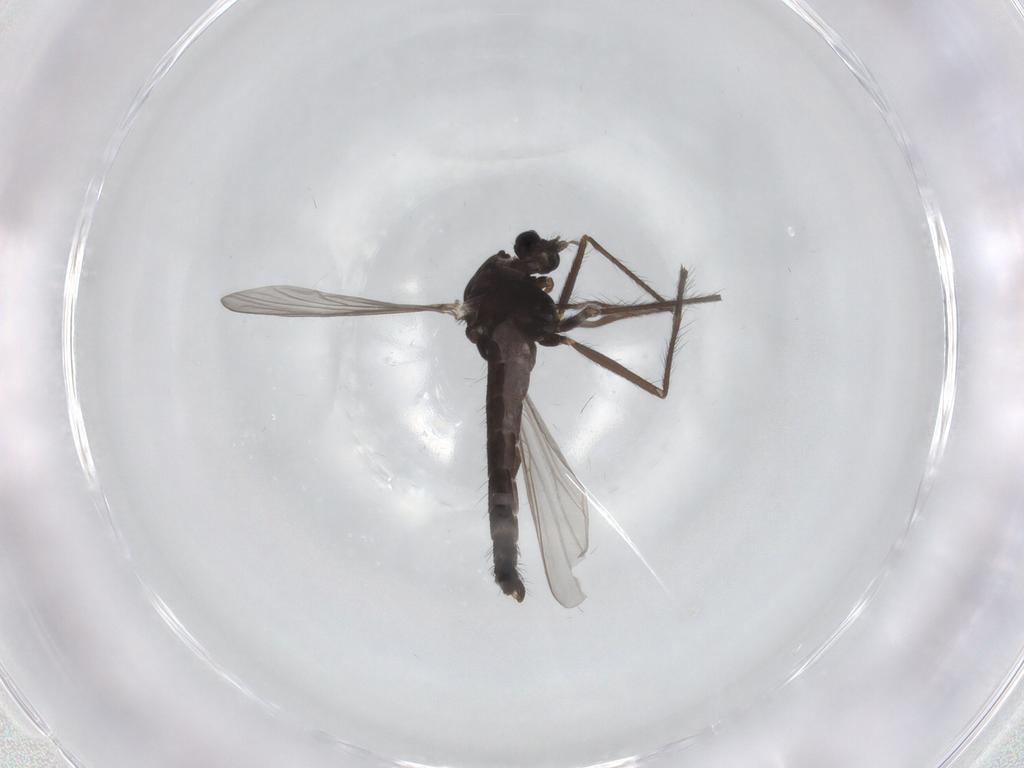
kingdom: Animalia
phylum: Arthropoda
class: Insecta
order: Diptera
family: Chironomidae
